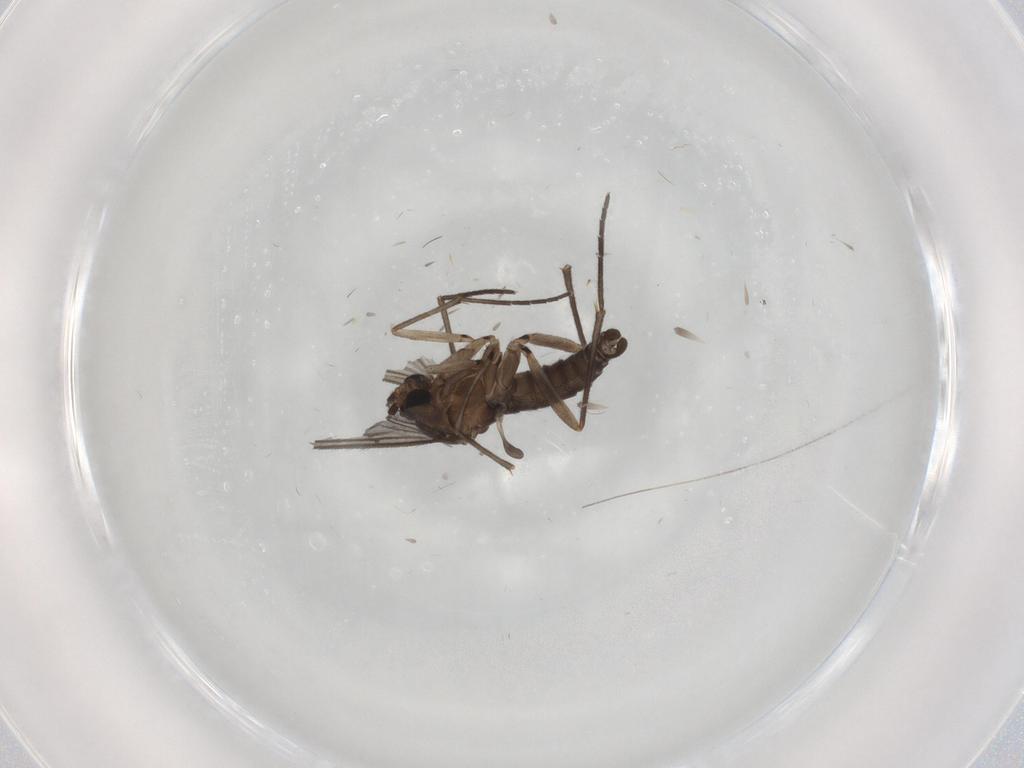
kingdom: Animalia
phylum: Arthropoda
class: Insecta
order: Diptera
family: Sciaridae
